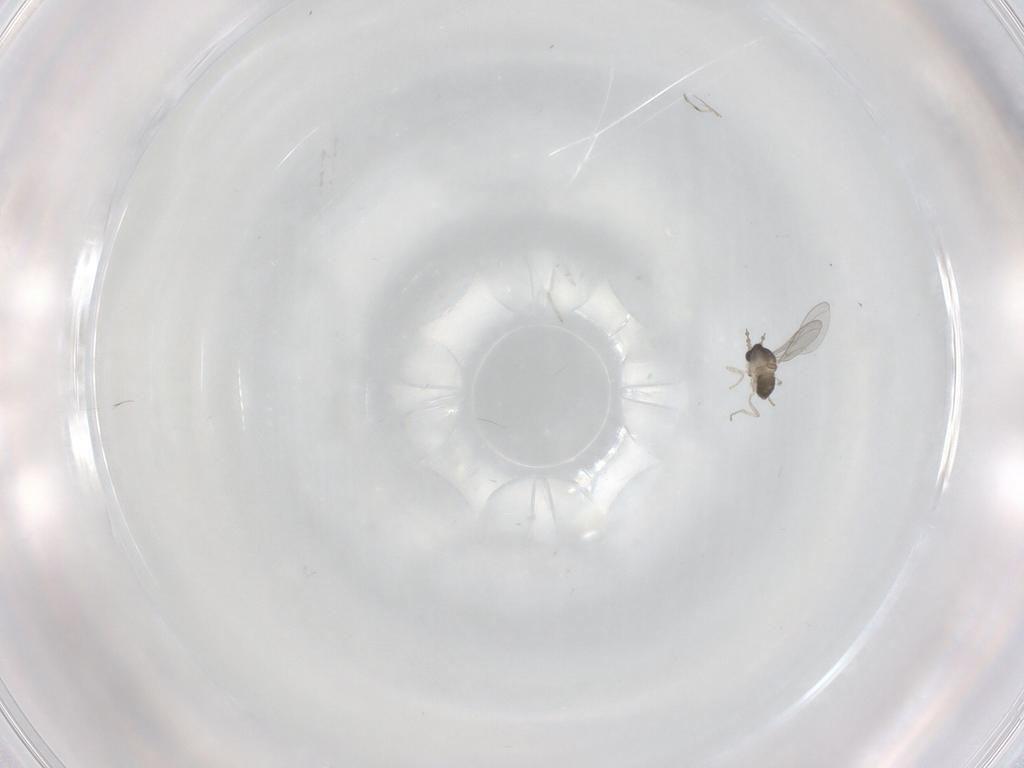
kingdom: Animalia
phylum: Arthropoda
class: Insecta
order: Diptera
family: Cecidomyiidae
